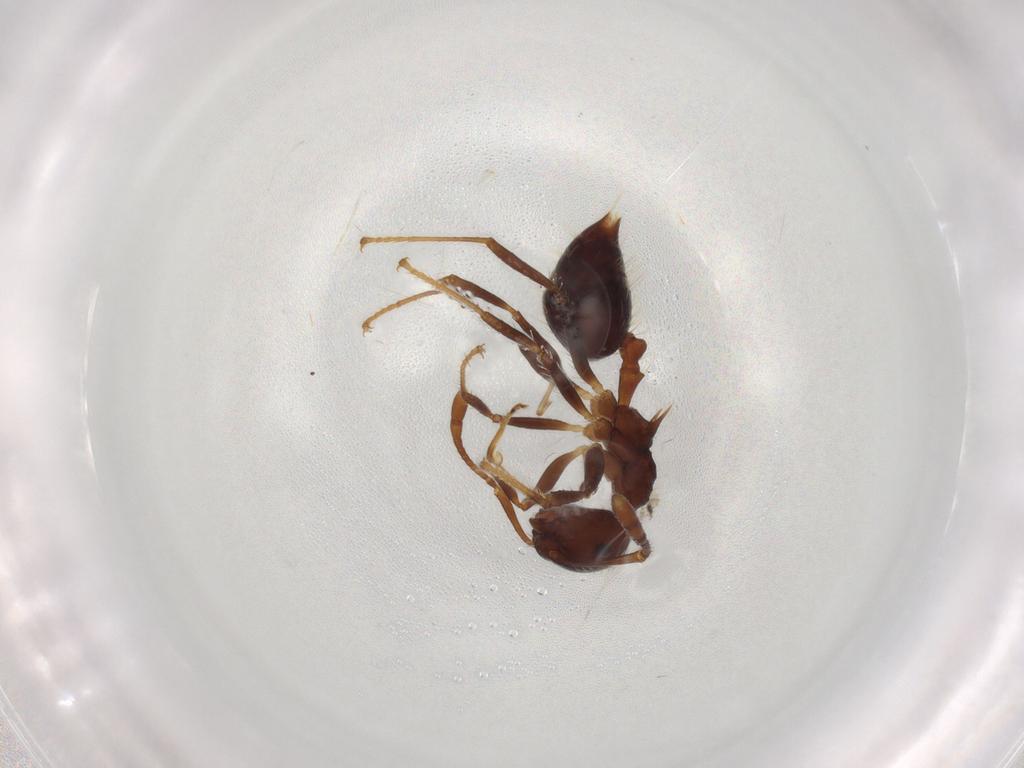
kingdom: Animalia
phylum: Arthropoda
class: Insecta
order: Hymenoptera
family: Formicidae
